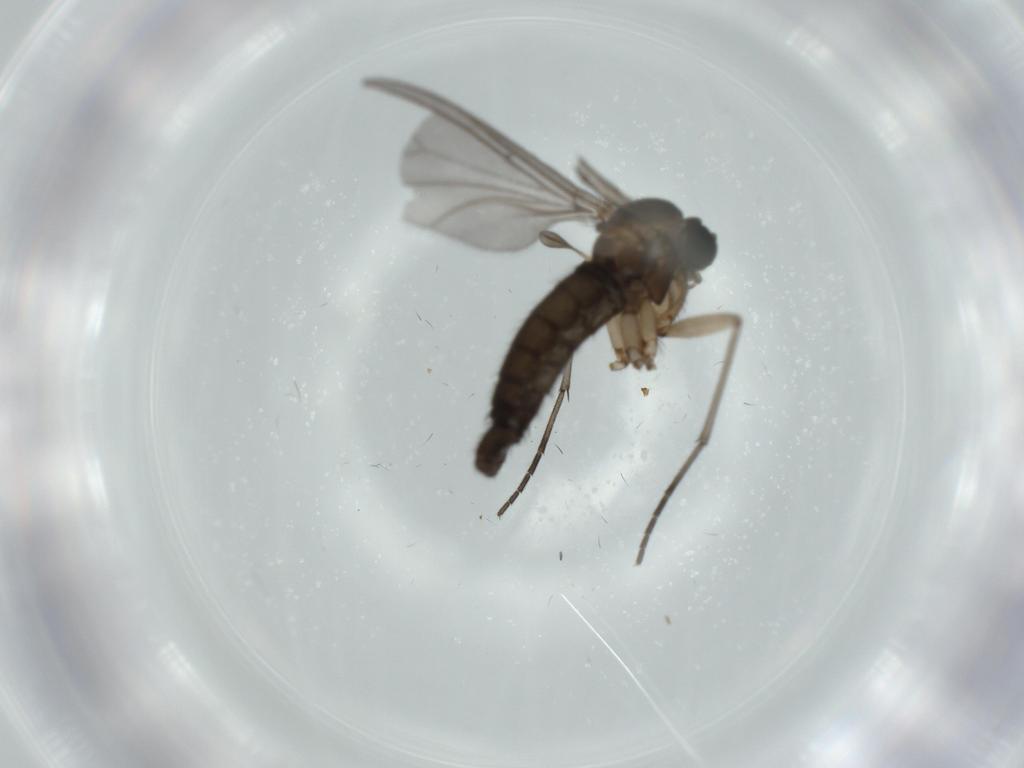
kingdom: Animalia
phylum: Arthropoda
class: Insecta
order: Diptera
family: Sciaridae
